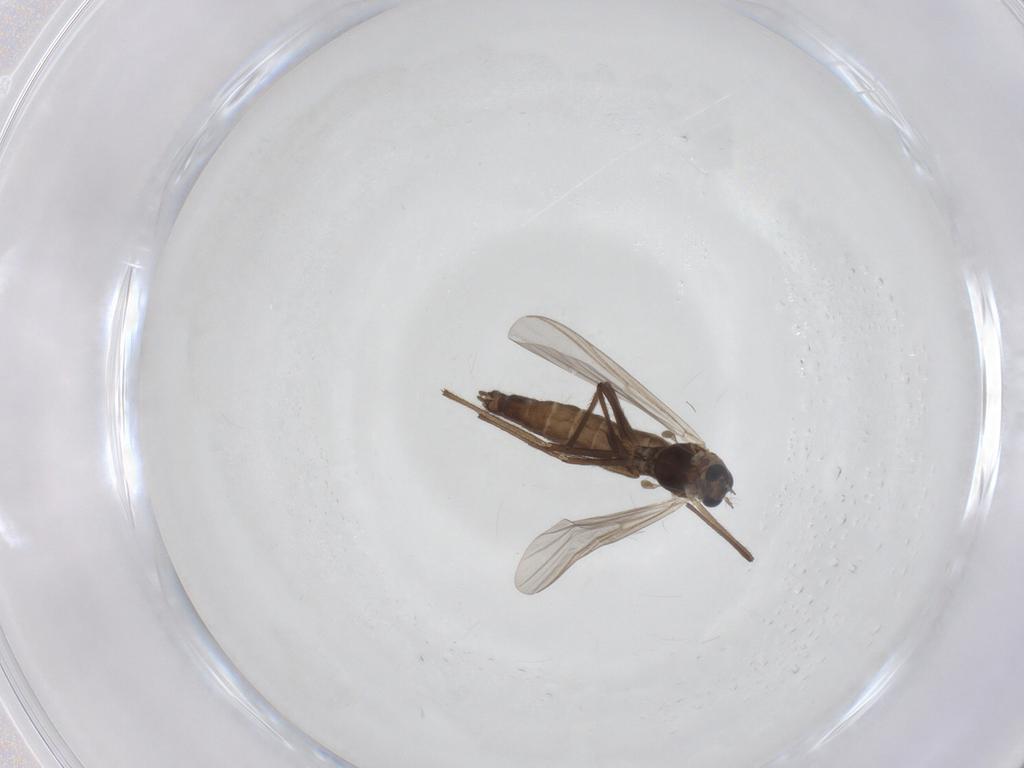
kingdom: Animalia
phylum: Arthropoda
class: Insecta
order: Diptera
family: Chironomidae
